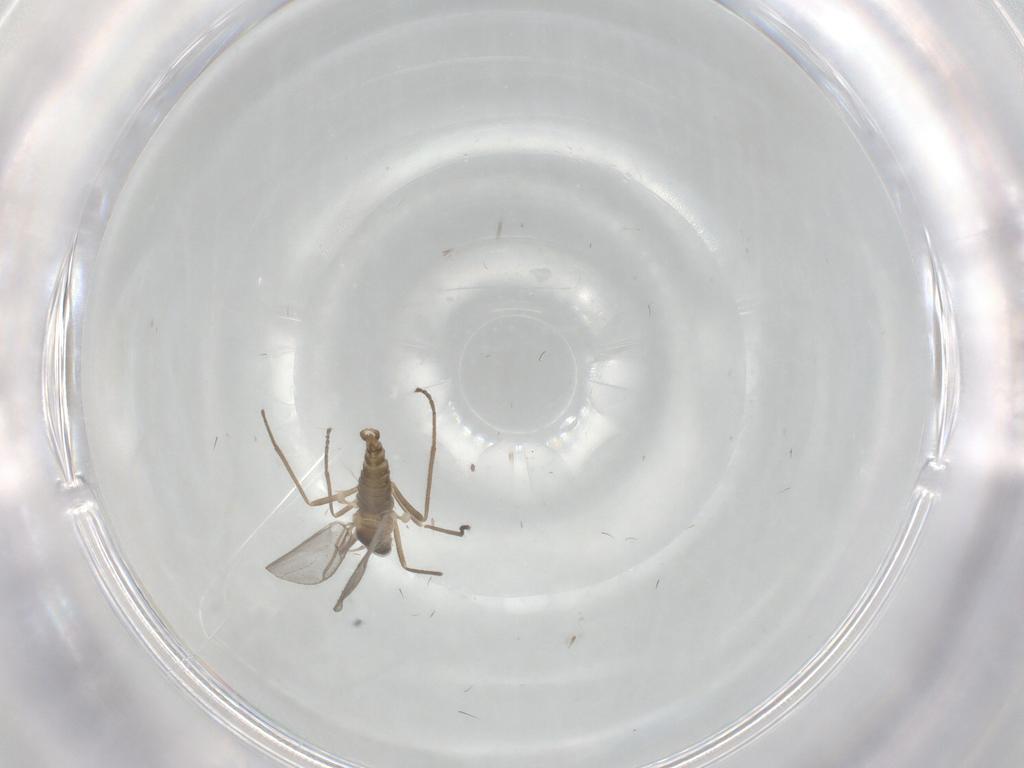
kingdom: Animalia
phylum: Arthropoda
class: Insecta
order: Diptera
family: Cecidomyiidae
